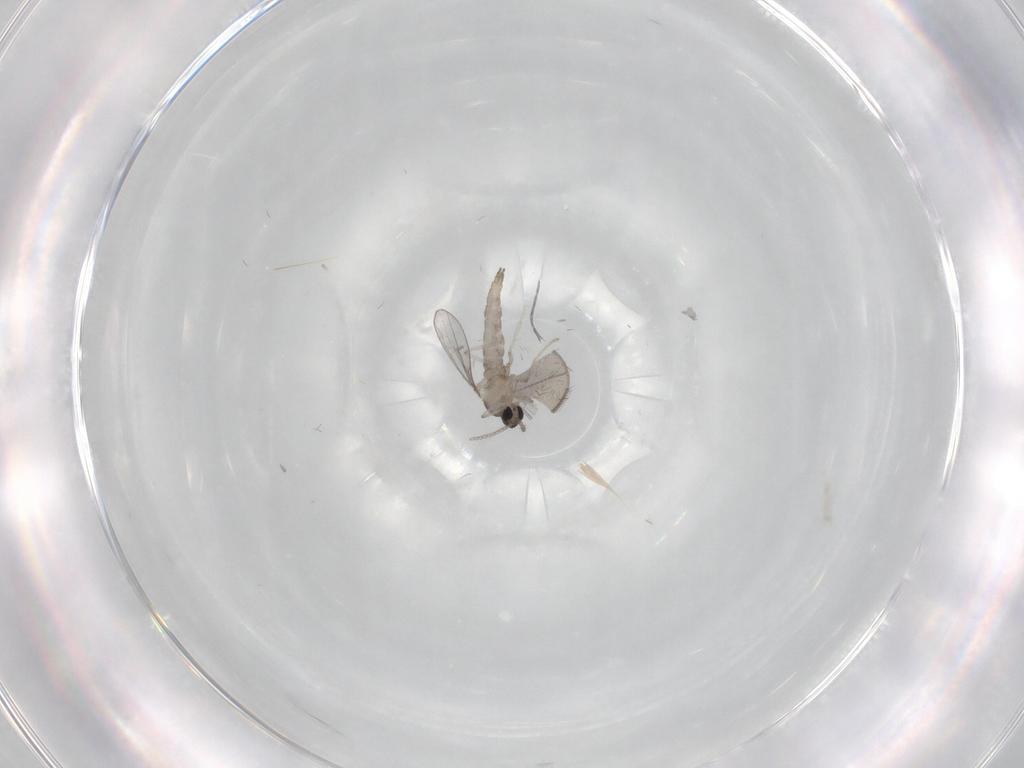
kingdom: Animalia
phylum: Arthropoda
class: Insecta
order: Diptera
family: Cecidomyiidae
